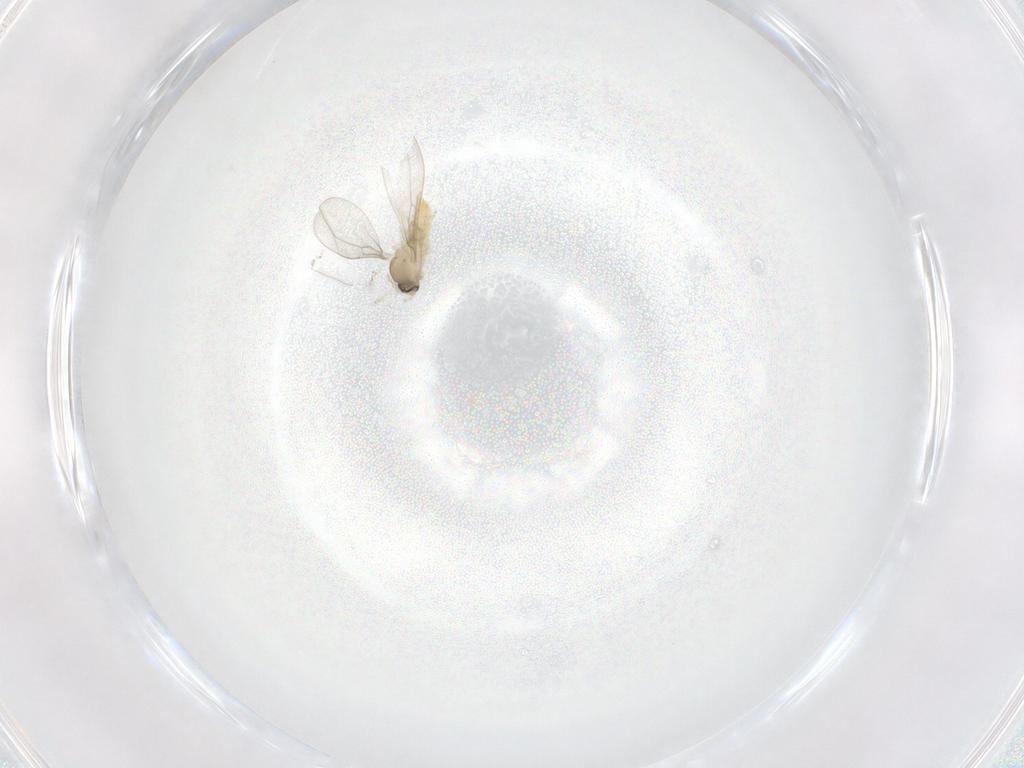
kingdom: Animalia
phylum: Arthropoda
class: Insecta
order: Diptera
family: Cecidomyiidae
